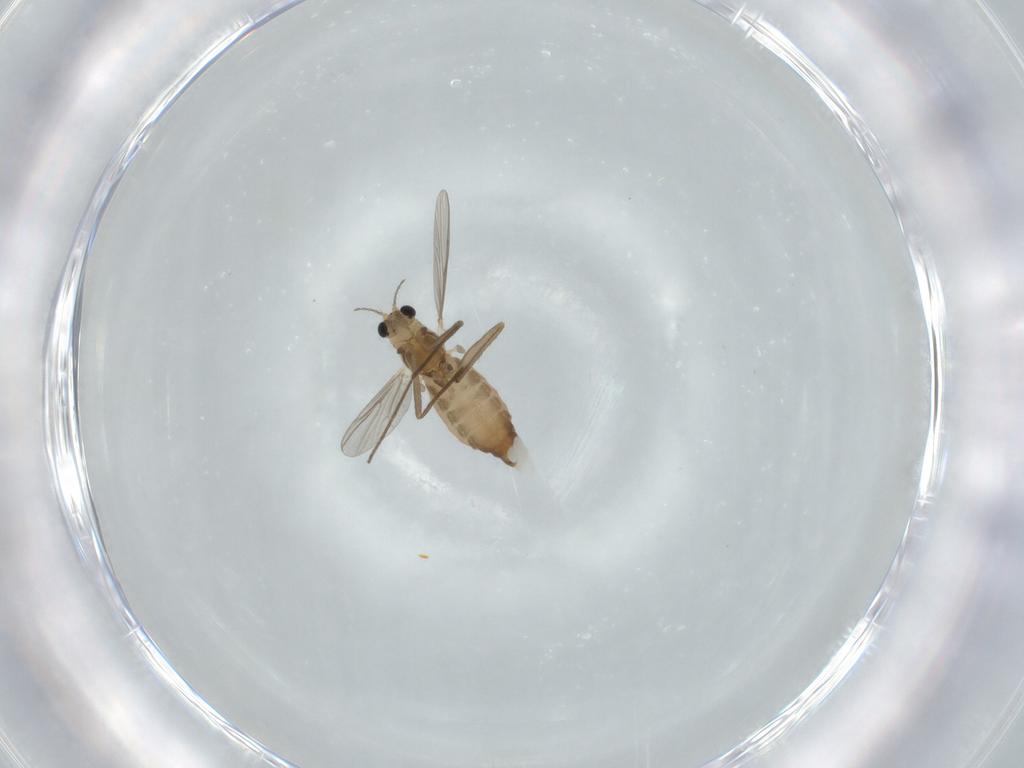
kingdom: Animalia
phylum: Arthropoda
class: Insecta
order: Diptera
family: Chironomidae
